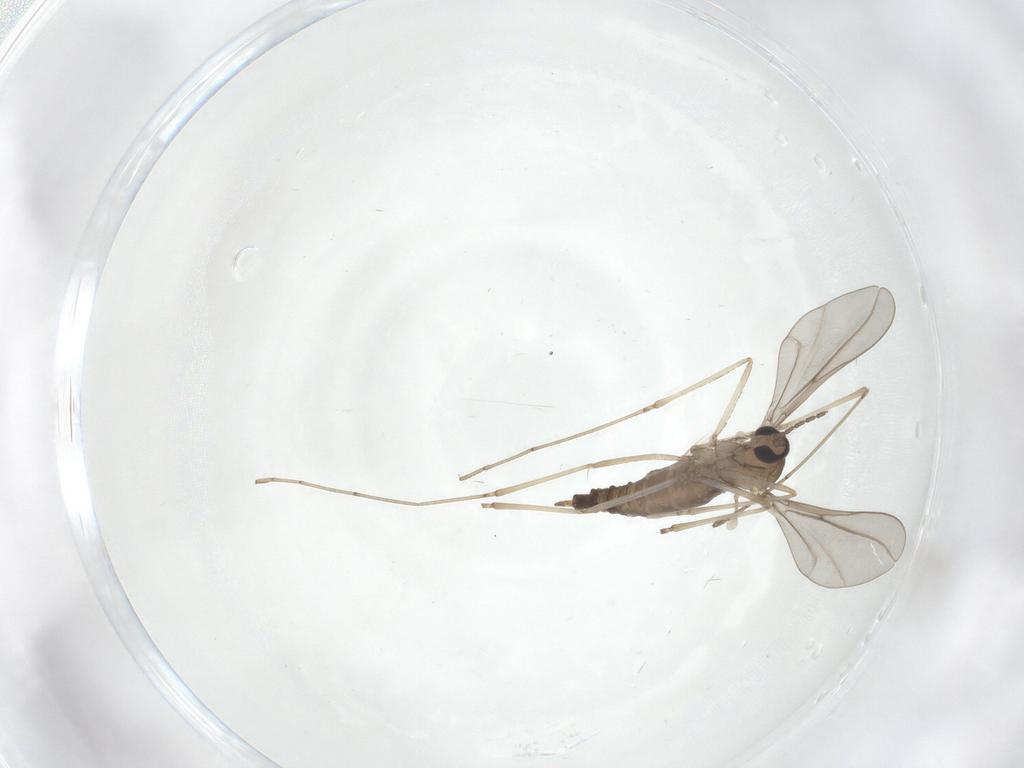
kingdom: Animalia
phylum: Arthropoda
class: Insecta
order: Diptera
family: Cecidomyiidae
